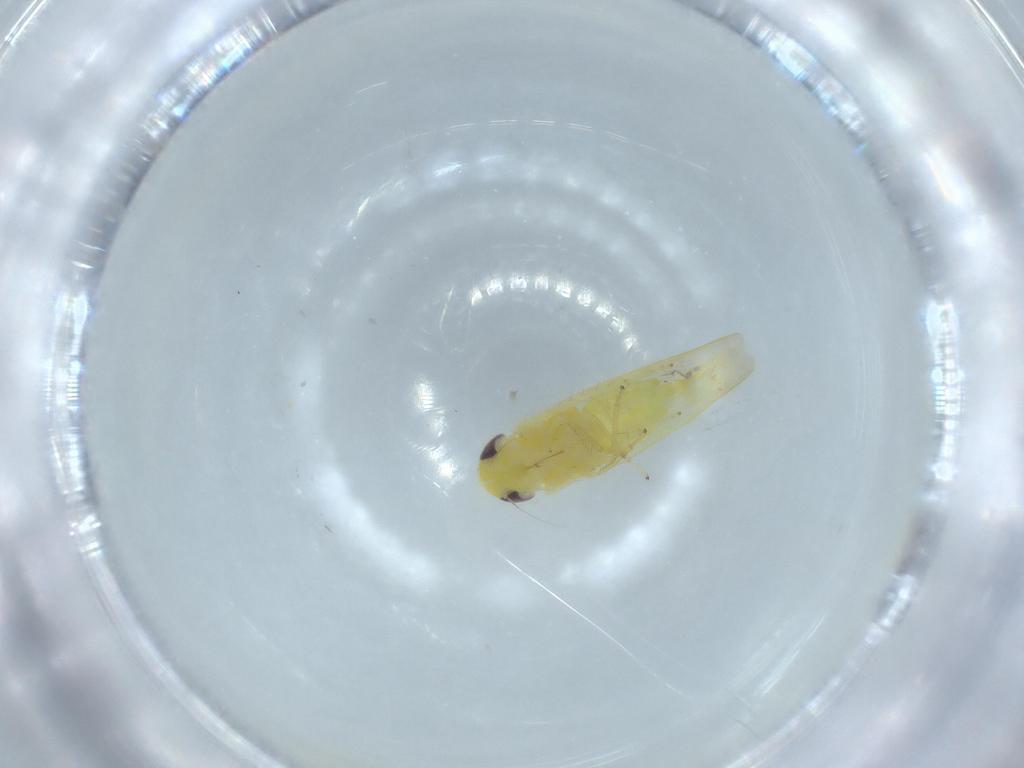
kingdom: Animalia
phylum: Arthropoda
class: Insecta
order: Hemiptera
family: Cicadellidae
